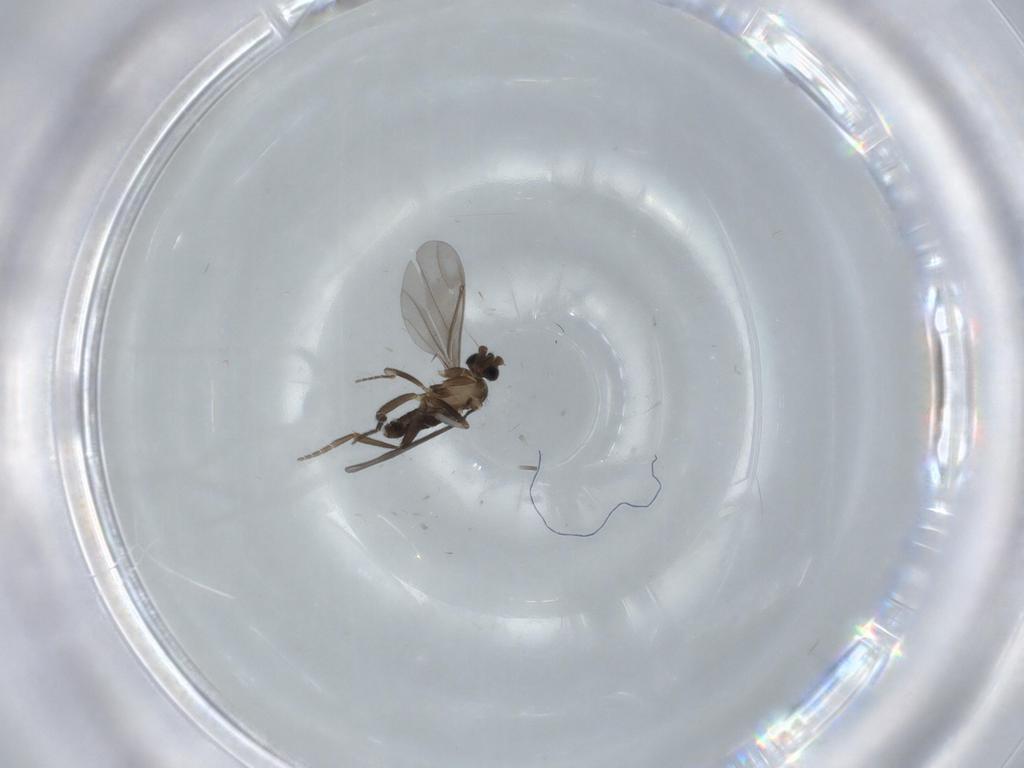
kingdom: Animalia
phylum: Arthropoda
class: Insecta
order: Diptera
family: Phoridae
